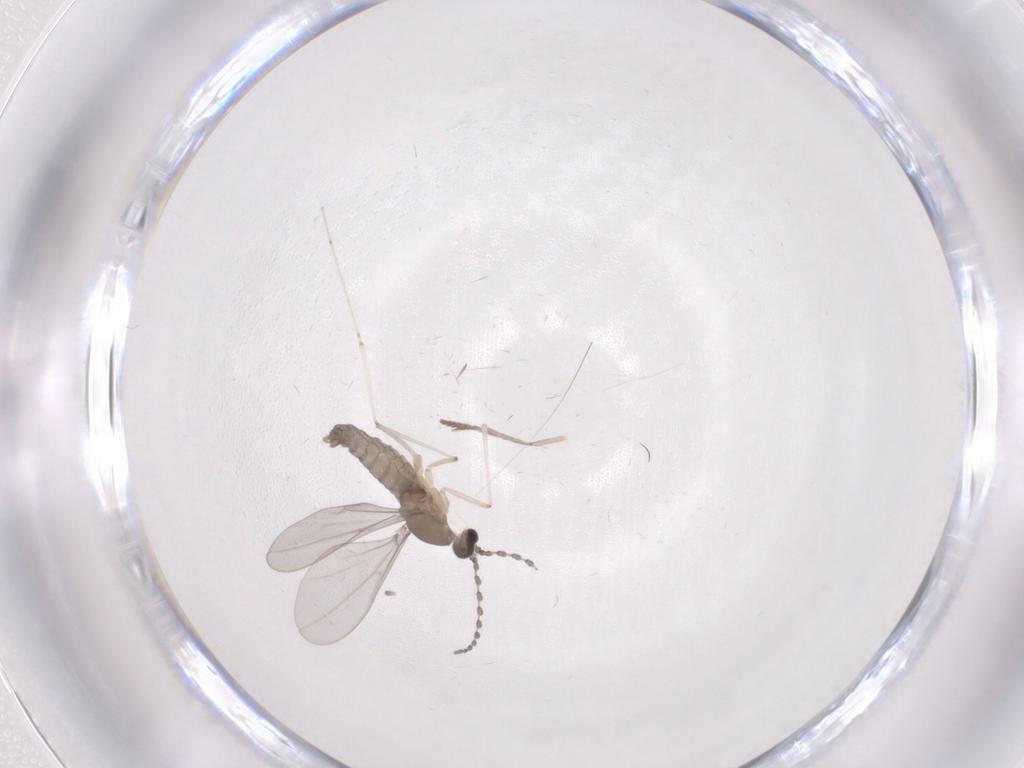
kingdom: Animalia
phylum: Arthropoda
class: Insecta
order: Diptera
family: Cecidomyiidae
